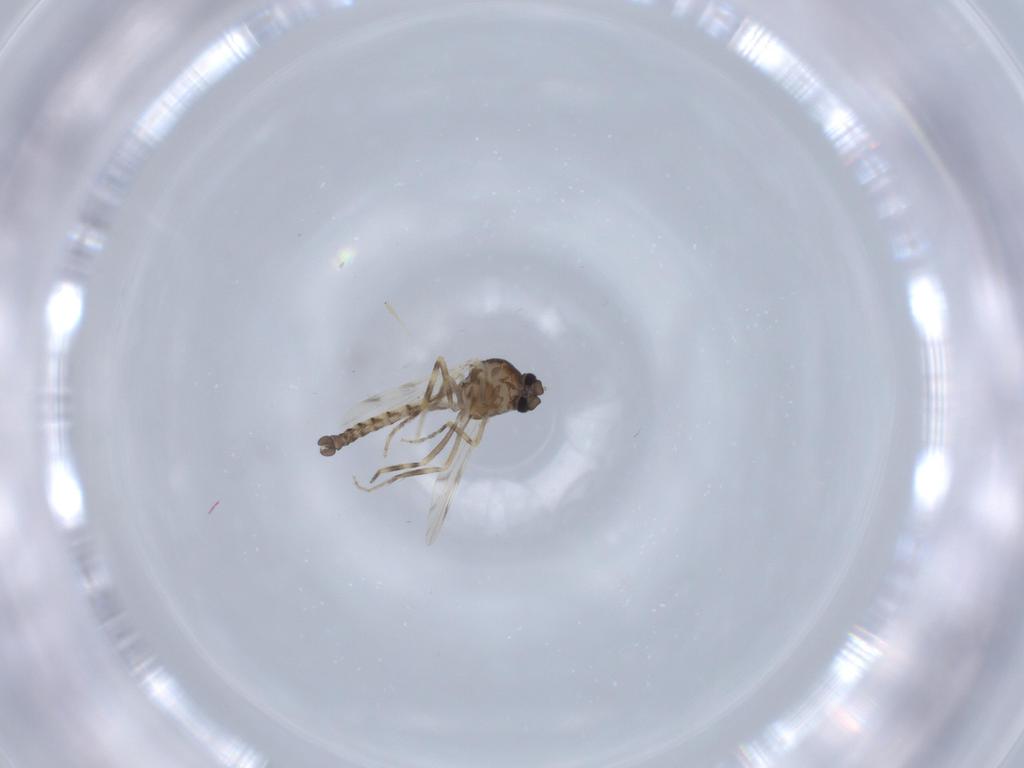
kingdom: Animalia
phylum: Arthropoda
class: Insecta
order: Diptera
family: Ceratopogonidae
